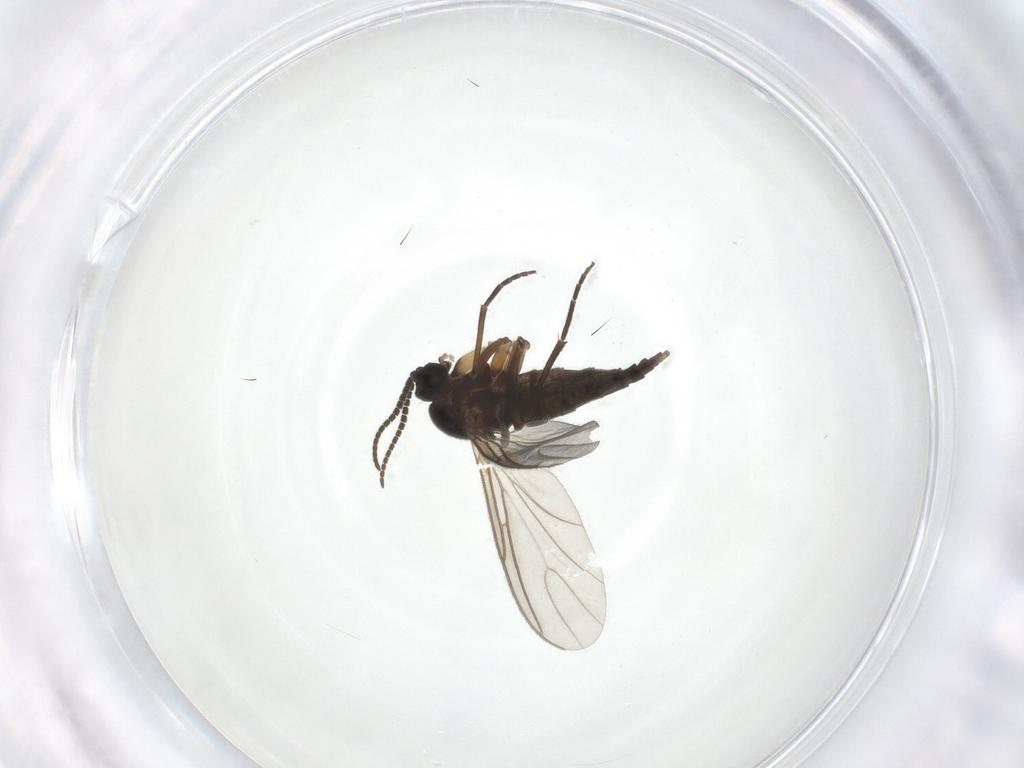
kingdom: Animalia
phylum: Arthropoda
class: Insecta
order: Diptera
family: Sciaridae
